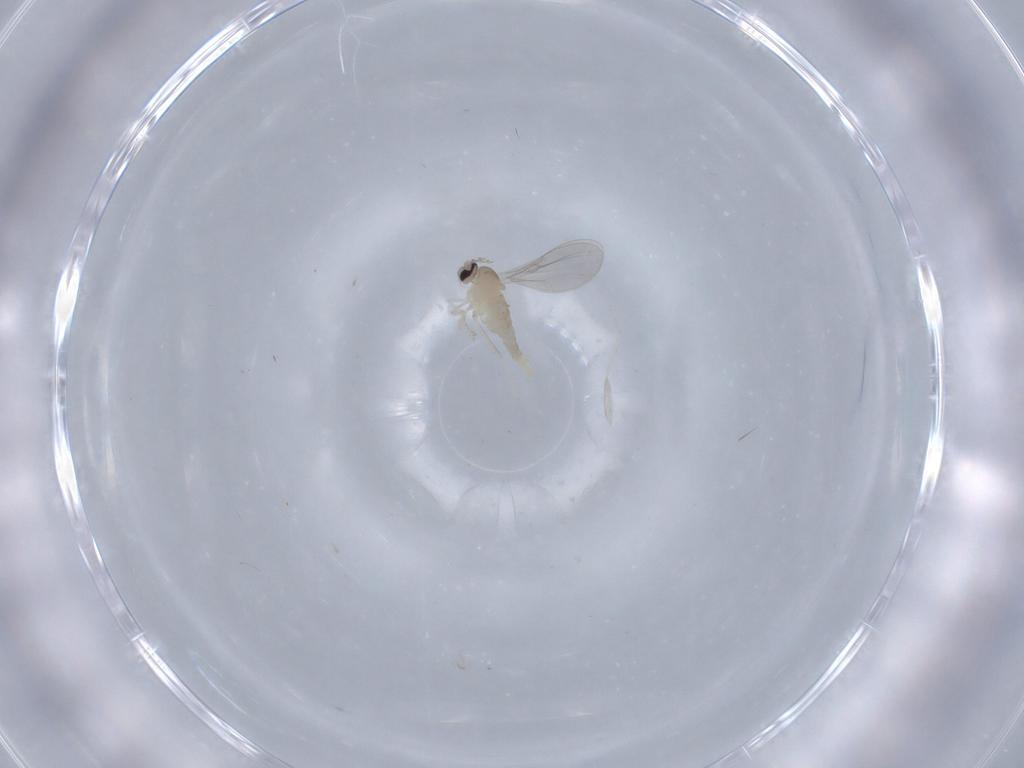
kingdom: Animalia
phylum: Arthropoda
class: Insecta
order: Diptera
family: Cecidomyiidae
